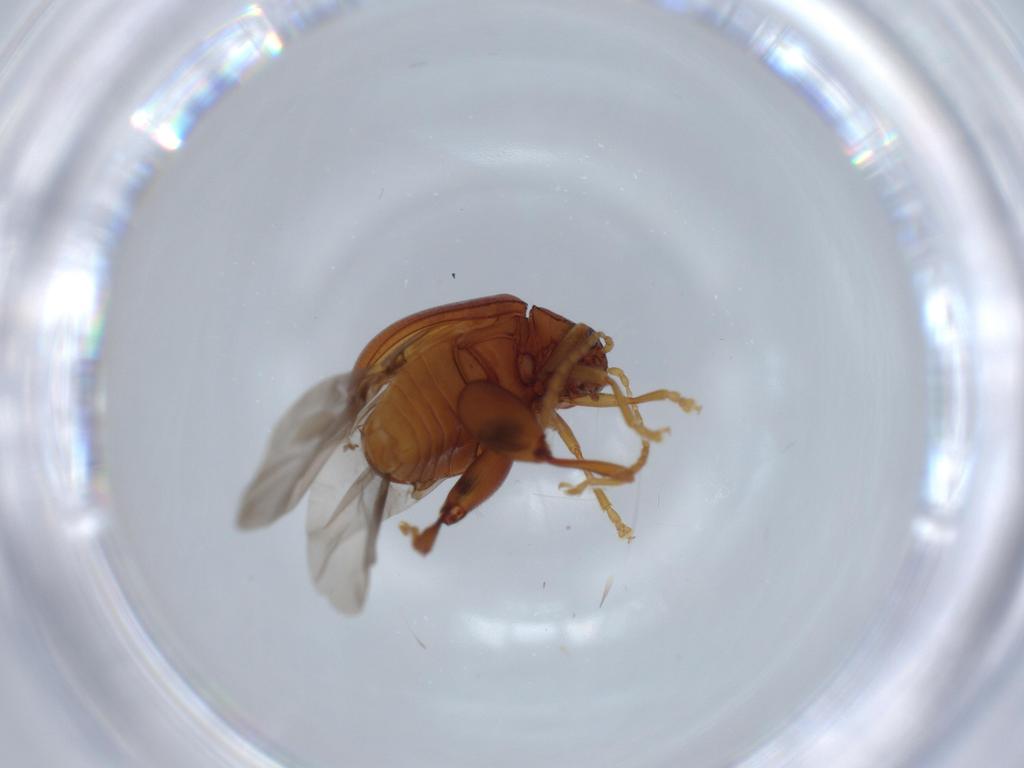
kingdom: Animalia
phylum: Arthropoda
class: Insecta
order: Coleoptera
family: Chrysomelidae
